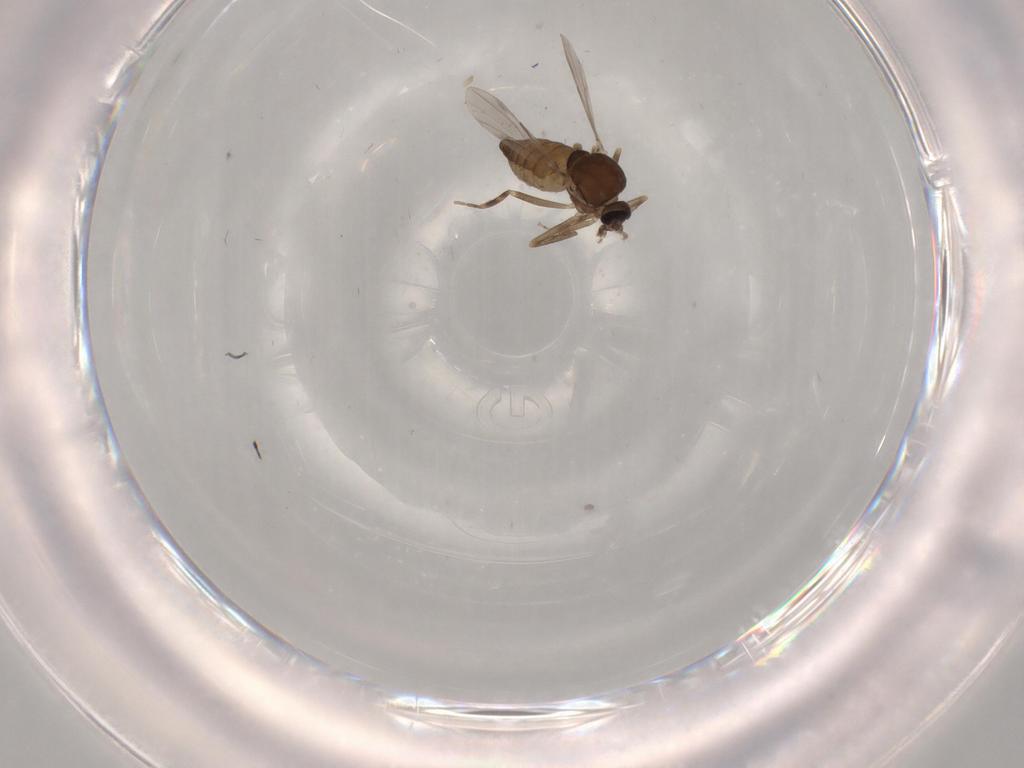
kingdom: Animalia
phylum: Arthropoda
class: Insecta
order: Diptera
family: Ceratopogonidae
